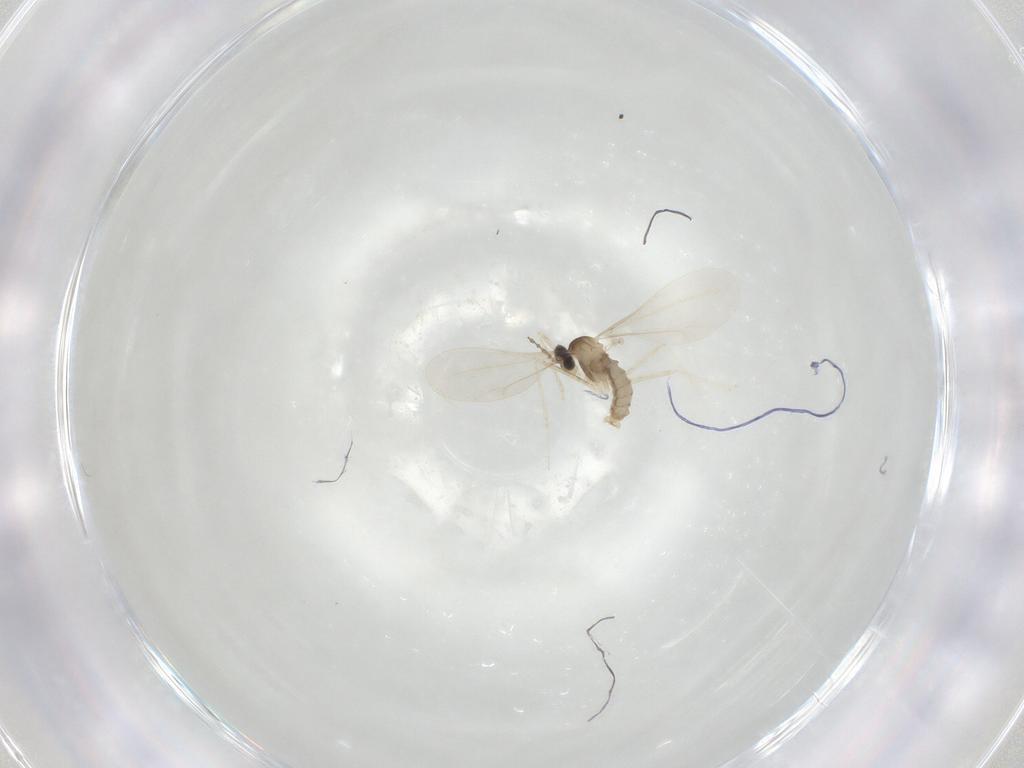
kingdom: Animalia
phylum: Arthropoda
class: Insecta
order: Diptera
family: Cecidomyiidae
